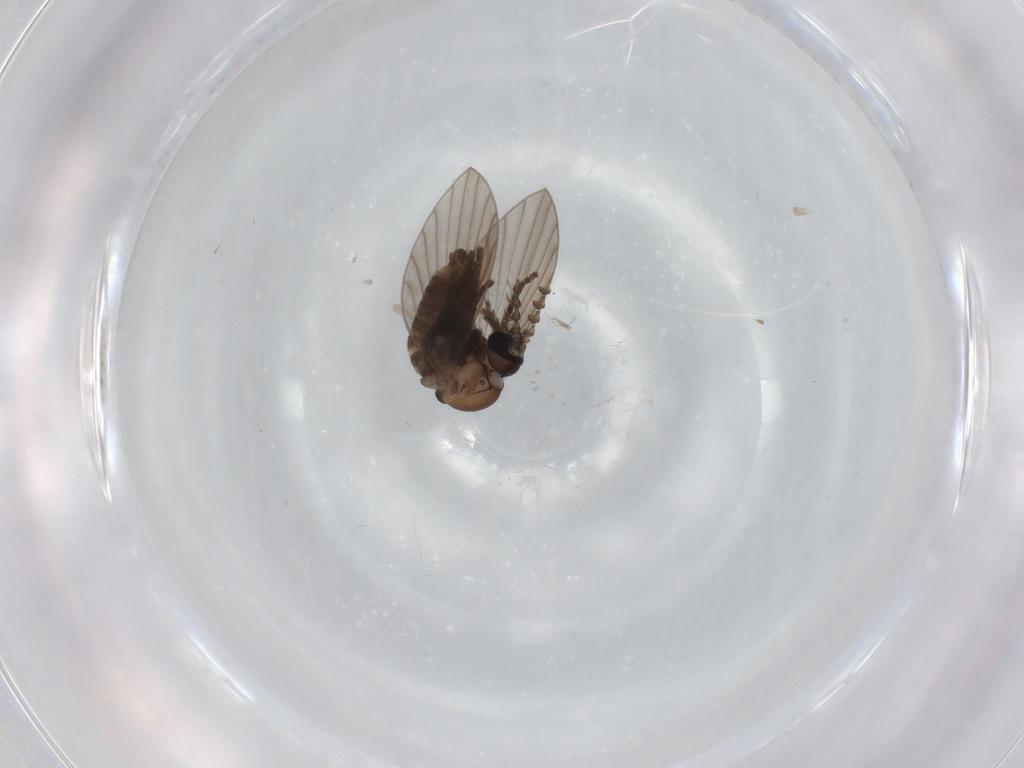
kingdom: Animalia
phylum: Arthropoda
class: Insecta
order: Diptera
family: Psychodidae
